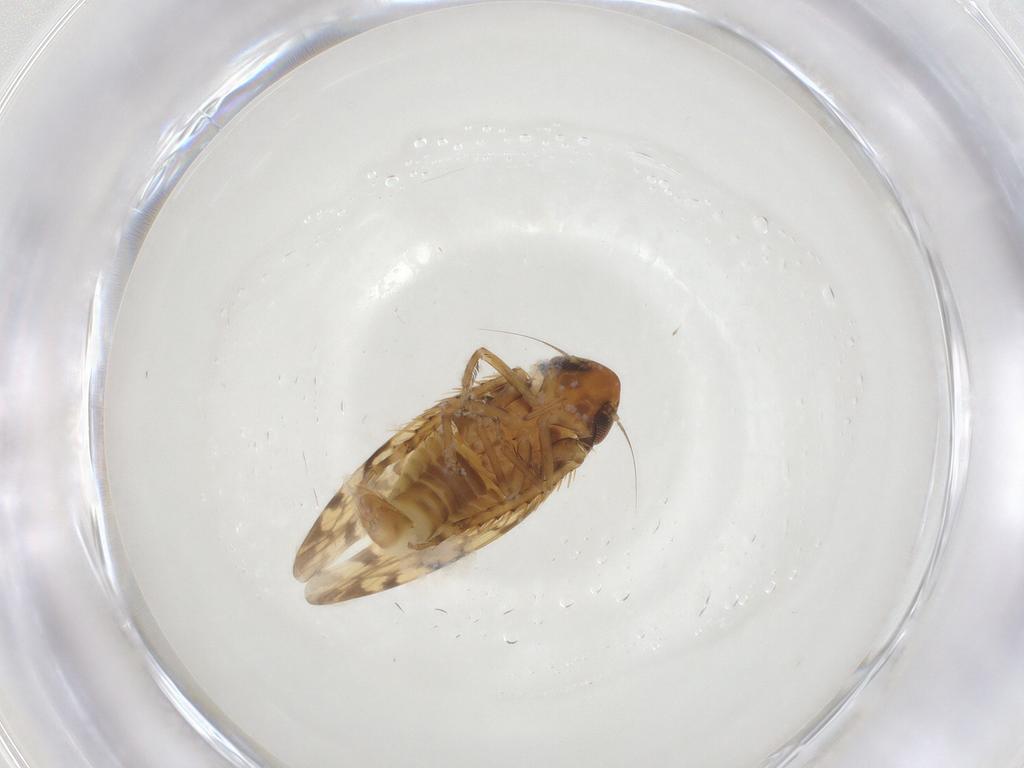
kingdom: Animalia
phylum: Arthropoda
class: Insecta
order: Hemiptera
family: Cicadellidae
